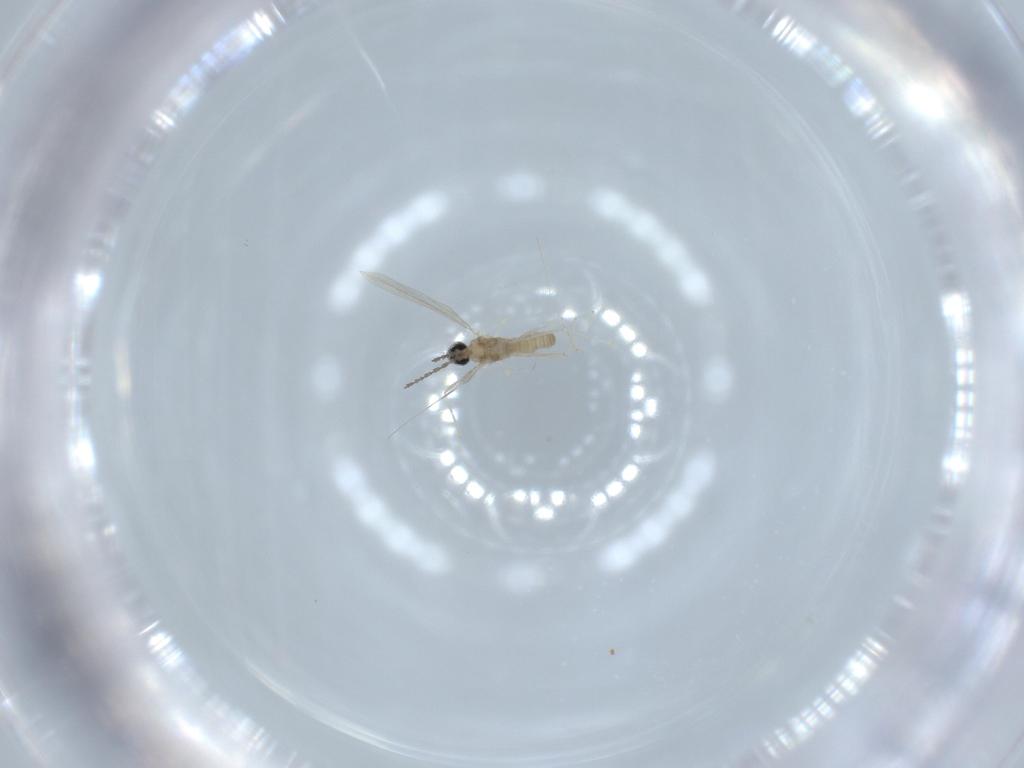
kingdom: Animalia
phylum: Arthropoda
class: Insecta
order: Diptera
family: Cecidomyiidae
